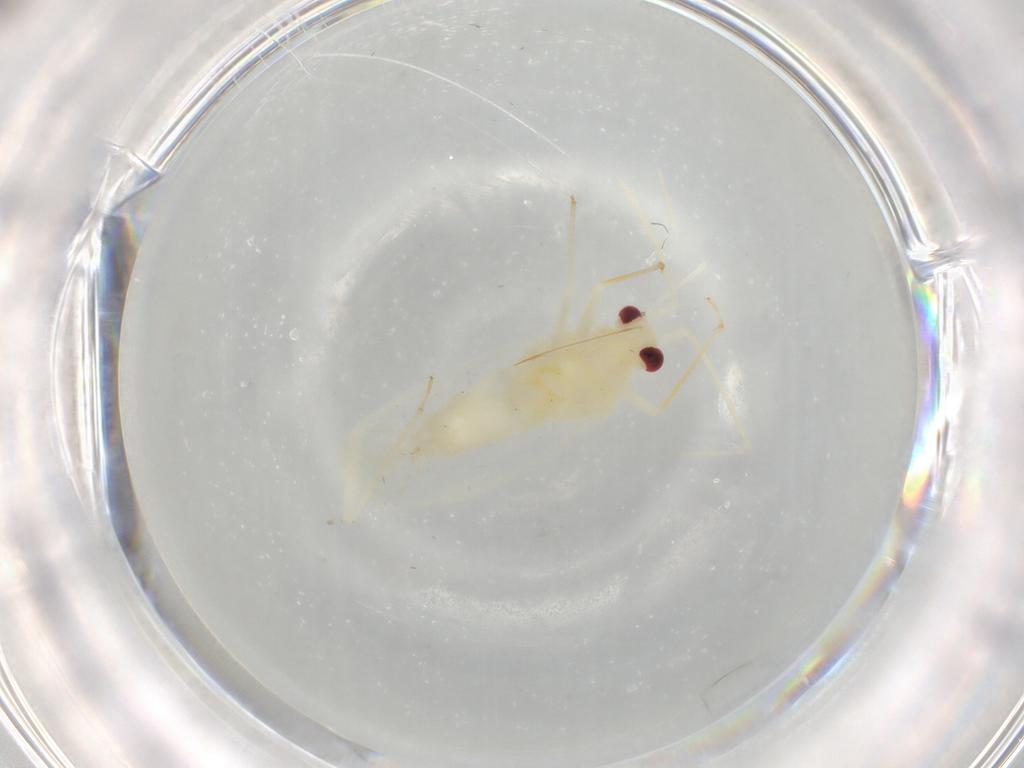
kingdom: Animalia
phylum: Arthropoda
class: Insecta
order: Hemiptera
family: Miridae
